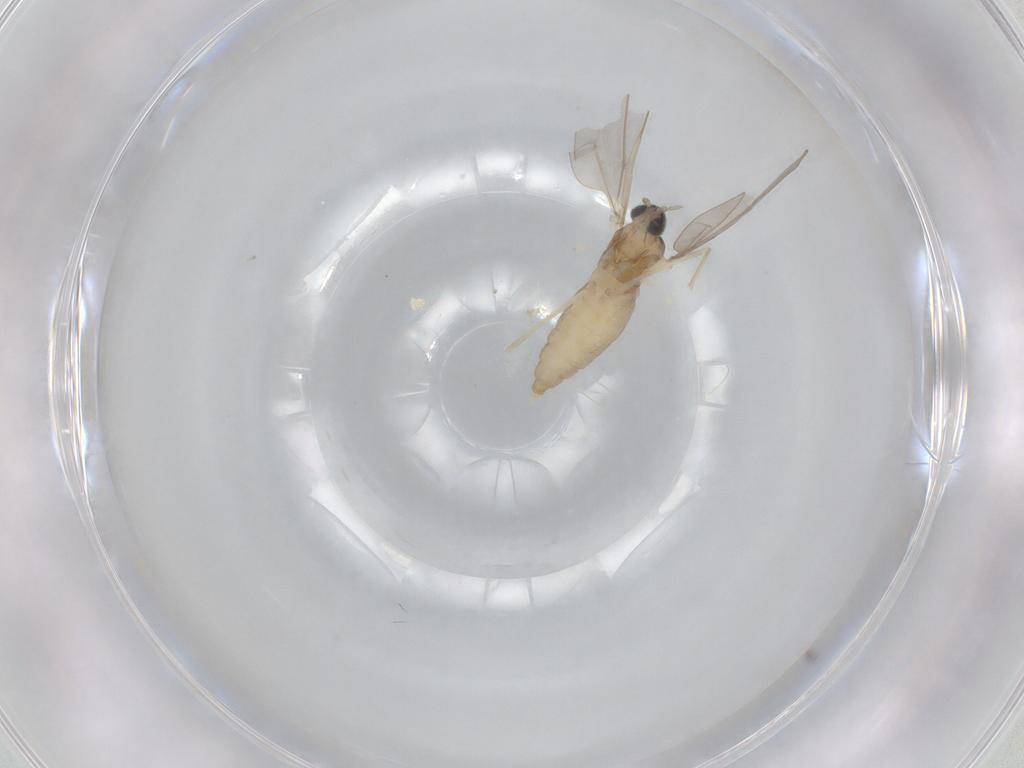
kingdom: Animalia
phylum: Arthropoda
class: Insecta
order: Diptera
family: Cecidomyiidae
